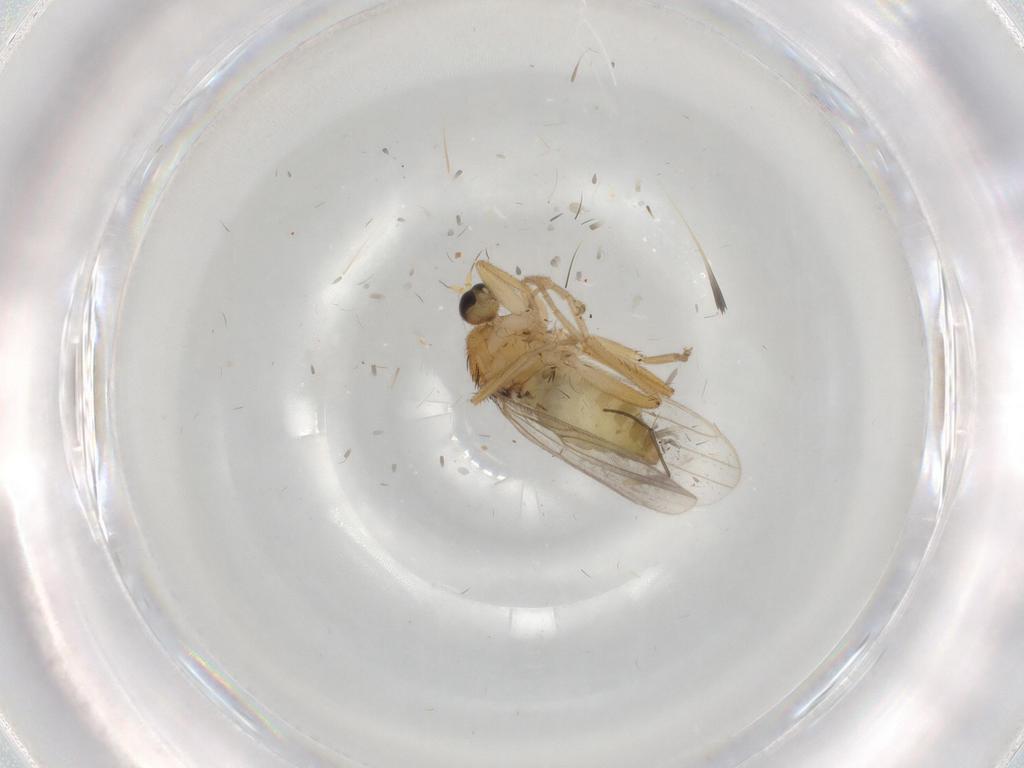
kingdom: Animalia
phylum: Arthropoda
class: Insecta
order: Diptera
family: Hybotidae
